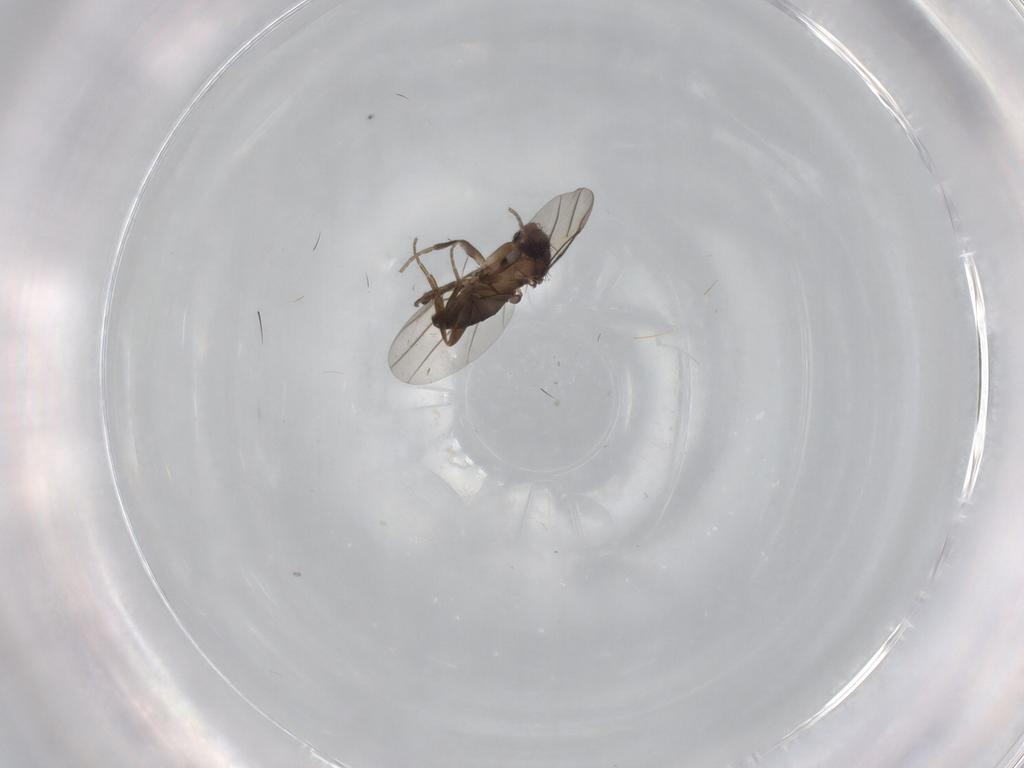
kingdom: Animalia
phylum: Arthropoda
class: Insecta
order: Diptera
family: Phoridae
